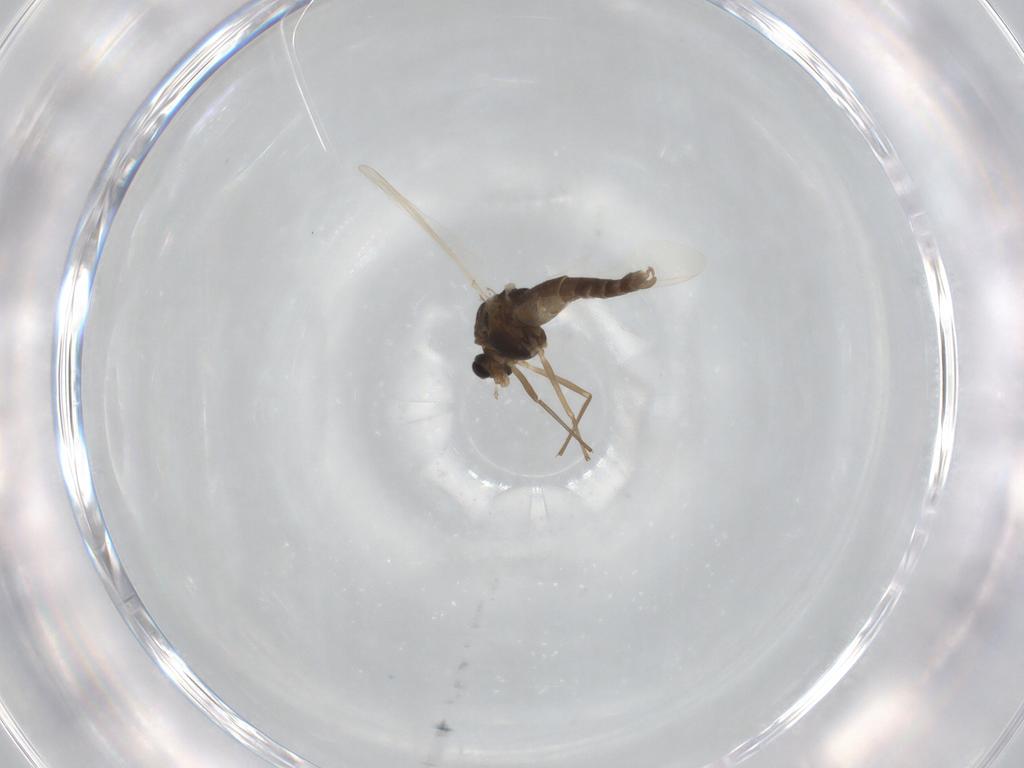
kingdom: Animalia
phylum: Arthropoda
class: Insecta
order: Diptera
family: Chironomidae
